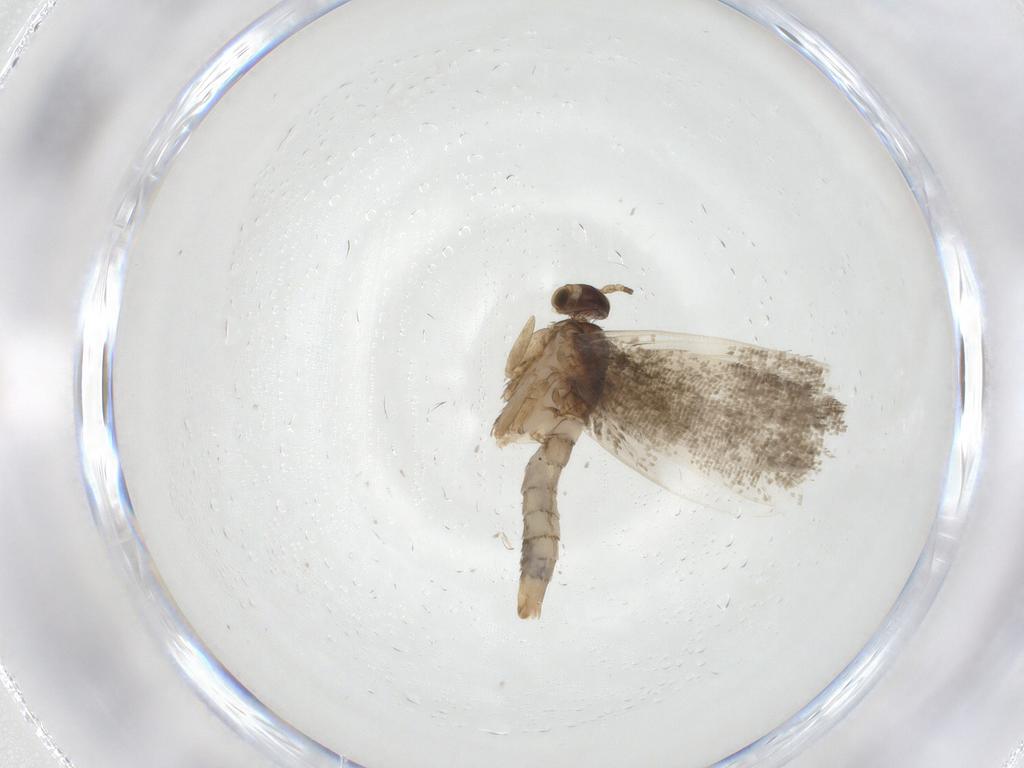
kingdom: Animalia
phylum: Arthropoda
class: Insecta
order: Lepidoptera
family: Tineidae
